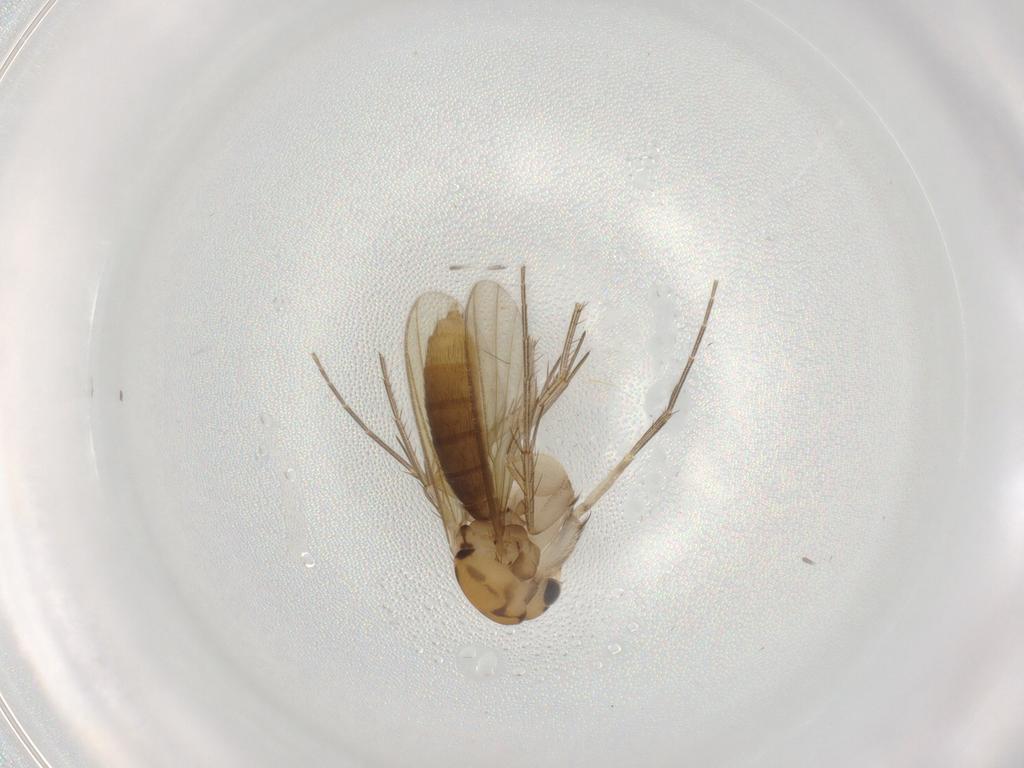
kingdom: Animalia
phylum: Arthropoda
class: Insecta
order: Diptera
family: Mycetophilidae
